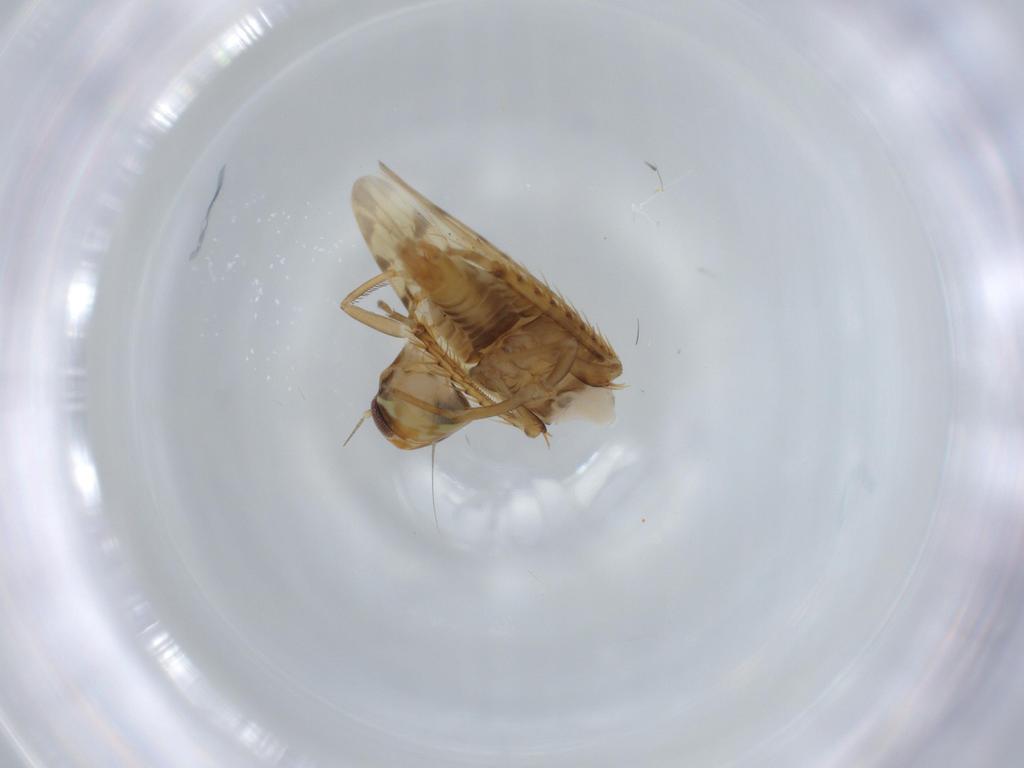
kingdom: Animalia
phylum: Arthropoda
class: Insecta
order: Hemiptera
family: Cicadellidae
